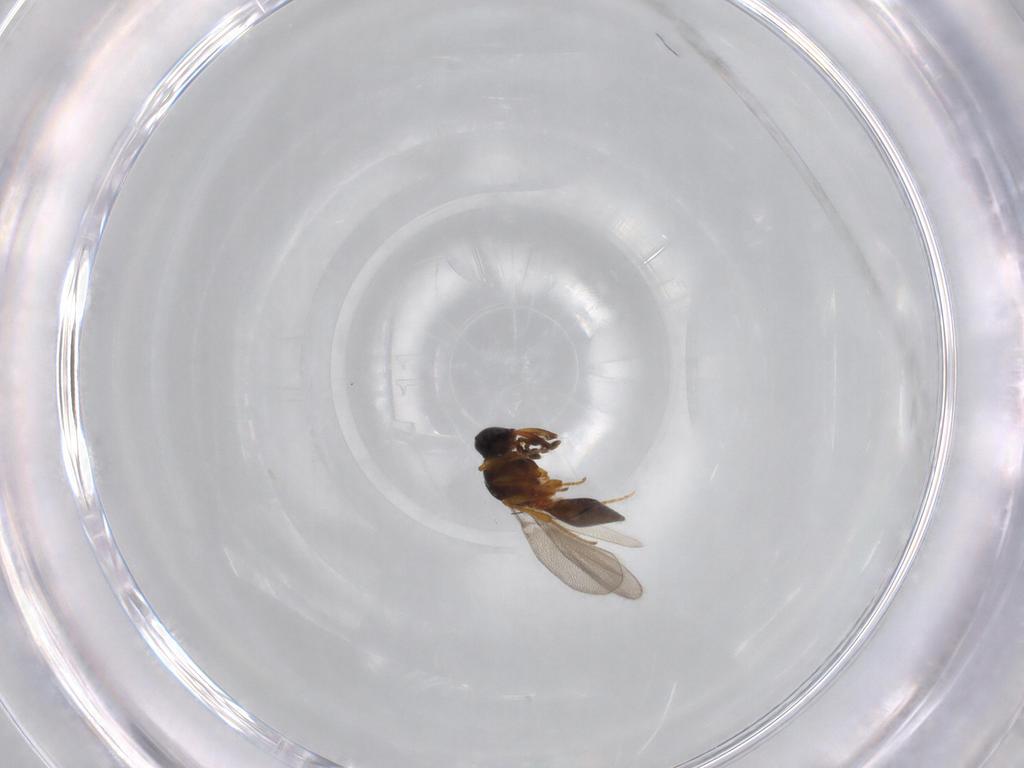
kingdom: Animalia
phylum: Arthropoda
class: Insecta
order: Hymenoptera
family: Platygastridae
